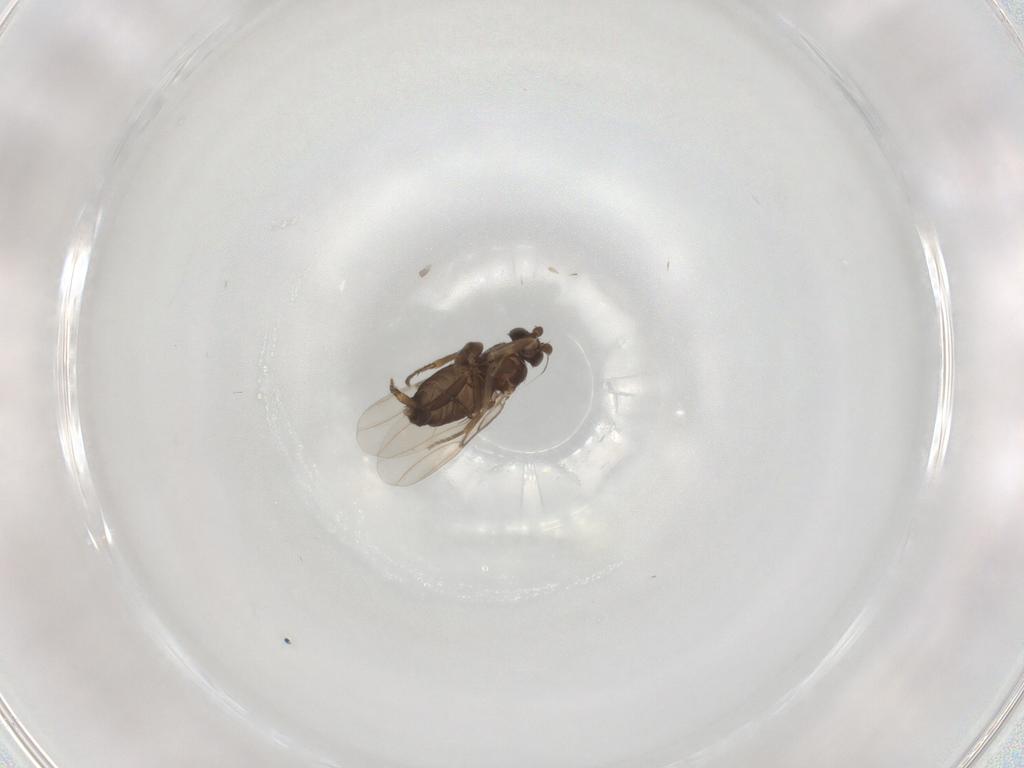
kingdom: Animalia
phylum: Arthropoda
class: Insecta
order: Diptera
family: Phoridae
